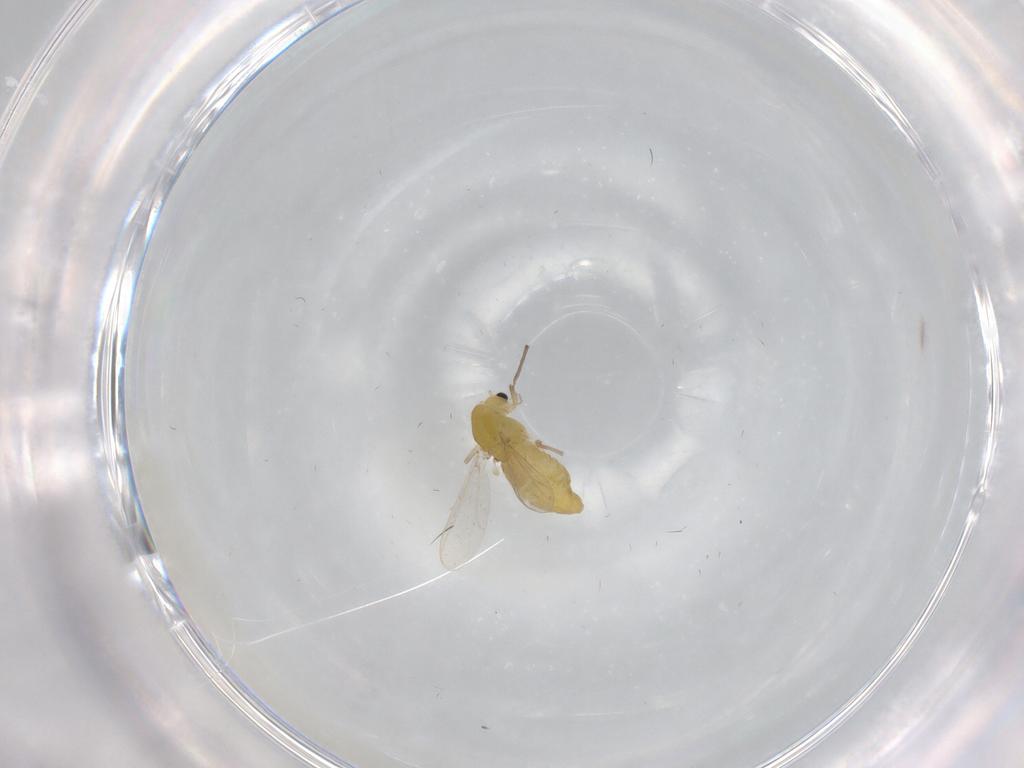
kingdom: Animalia
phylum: Arthropoda
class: Insecta
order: Diptera
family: Chironomidae
